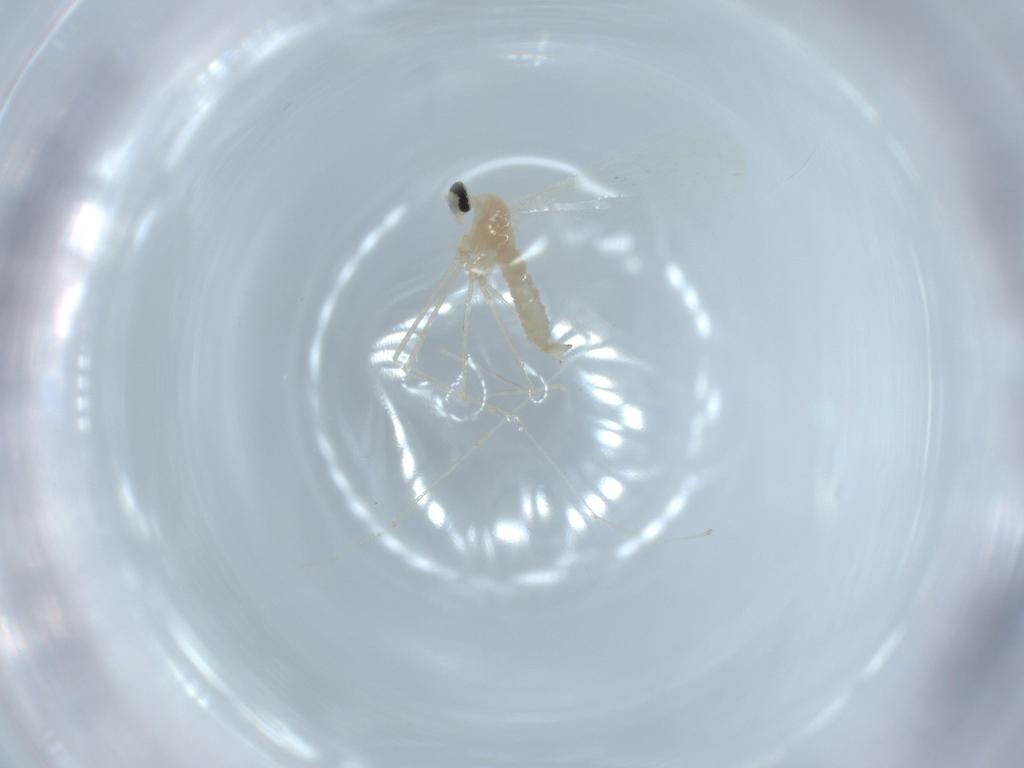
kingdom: Animalia
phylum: Arthropoda
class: Insecta
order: Diptera
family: Cecidomyiidae
